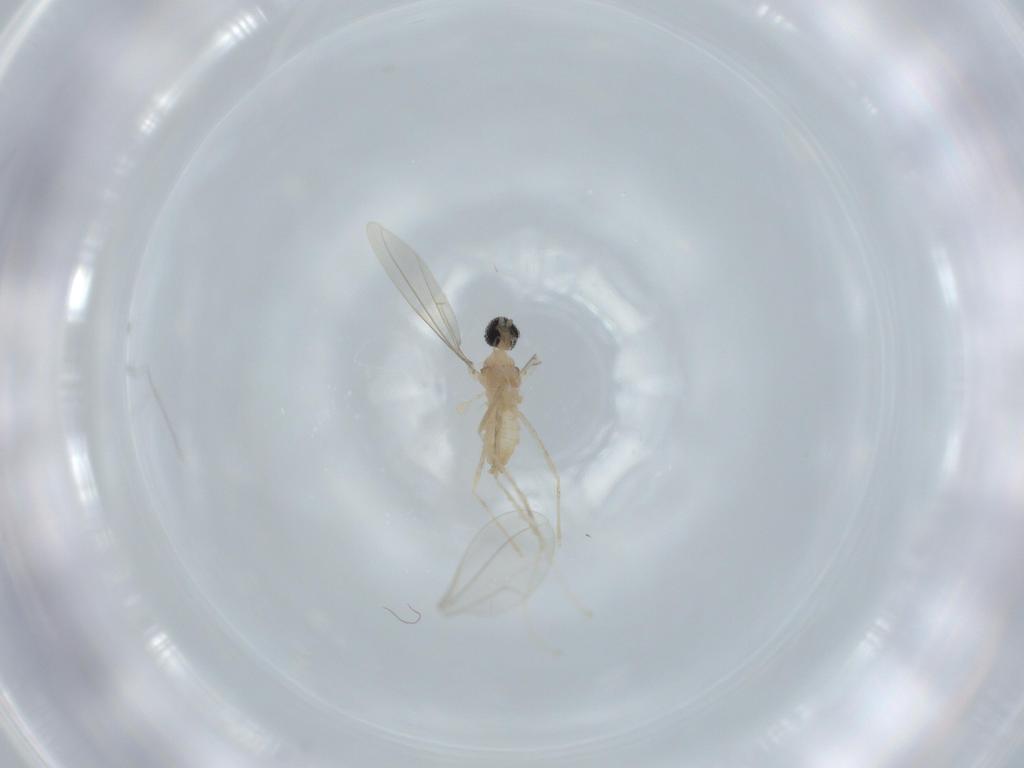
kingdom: Animalia
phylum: Arthropoda
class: Insecta
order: Diptera
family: Cecidomyiidae
